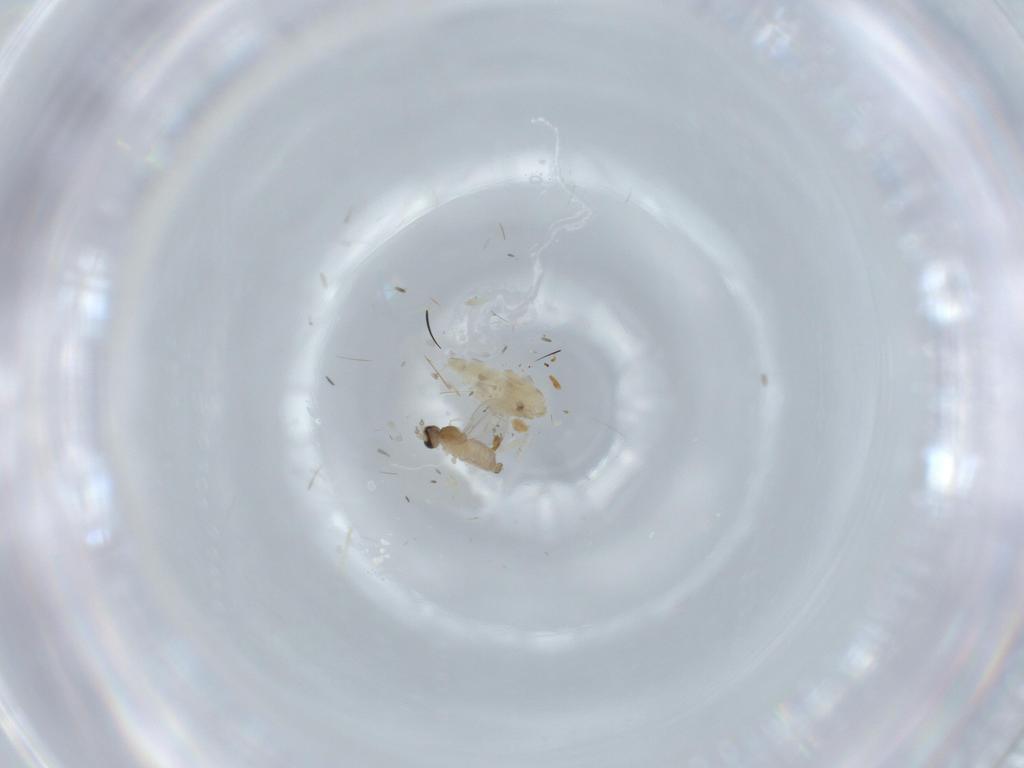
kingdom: Animalia
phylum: Arthropoda
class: Insecta
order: Diptera
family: Cecidomyiidae
